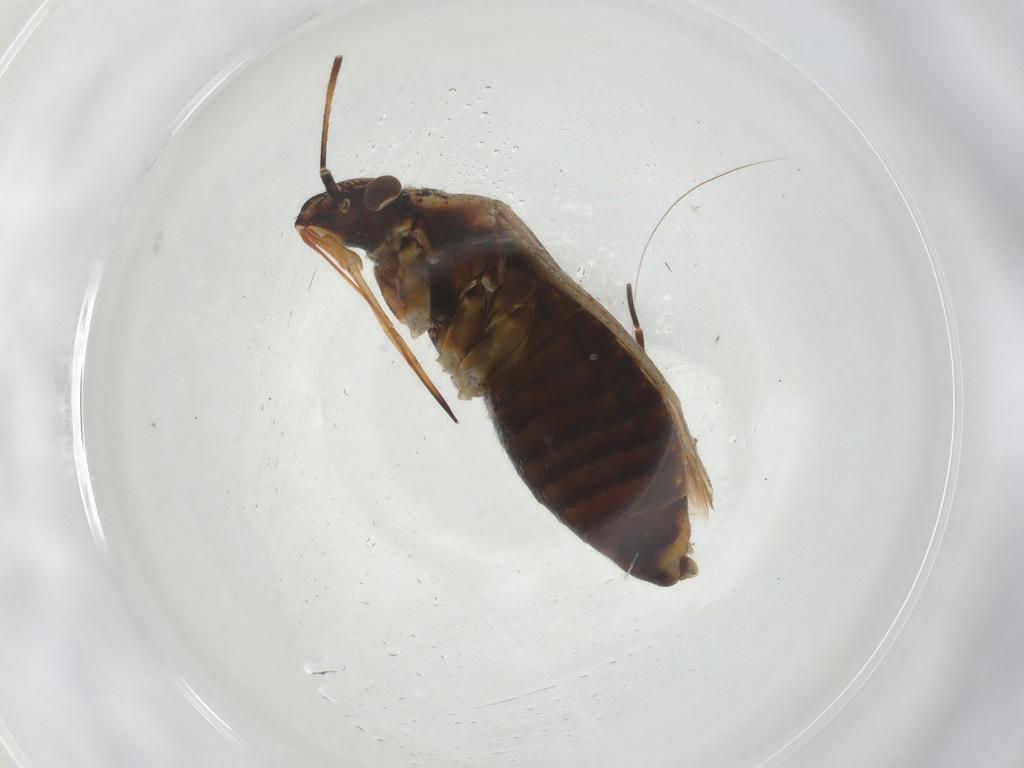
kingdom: Animalia
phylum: Arthropoda
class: Insecta
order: Hemiptera
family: Miridae
